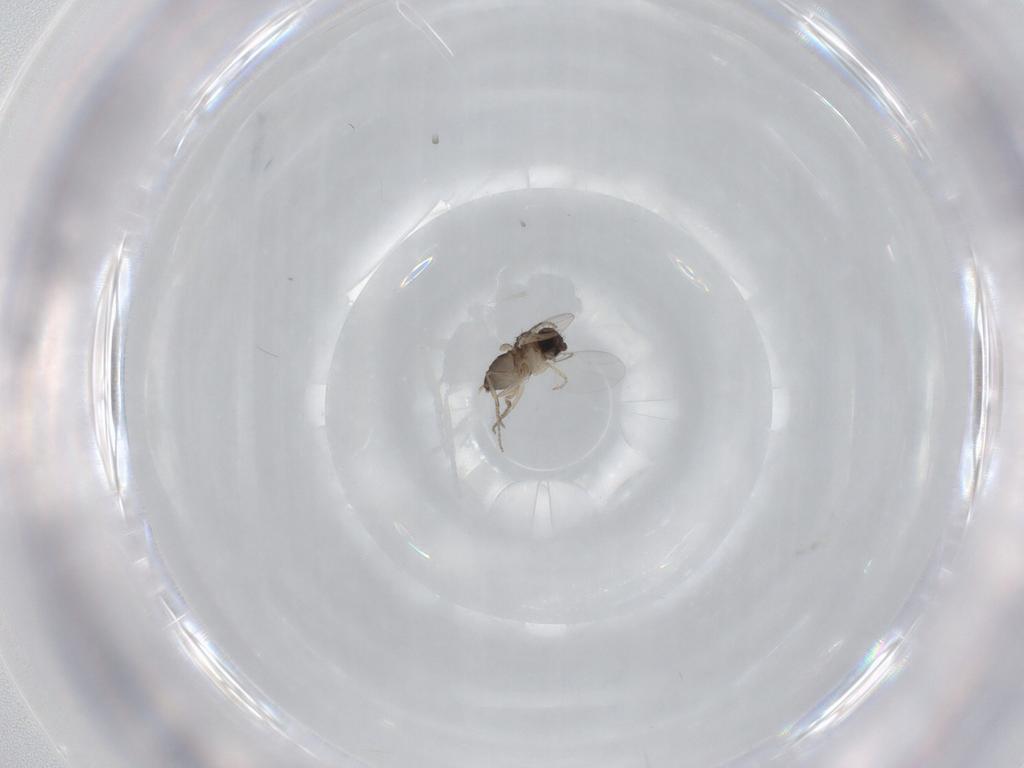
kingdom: Animalia
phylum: Arthropoda
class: Insecta
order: Diptera
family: Phoridae
